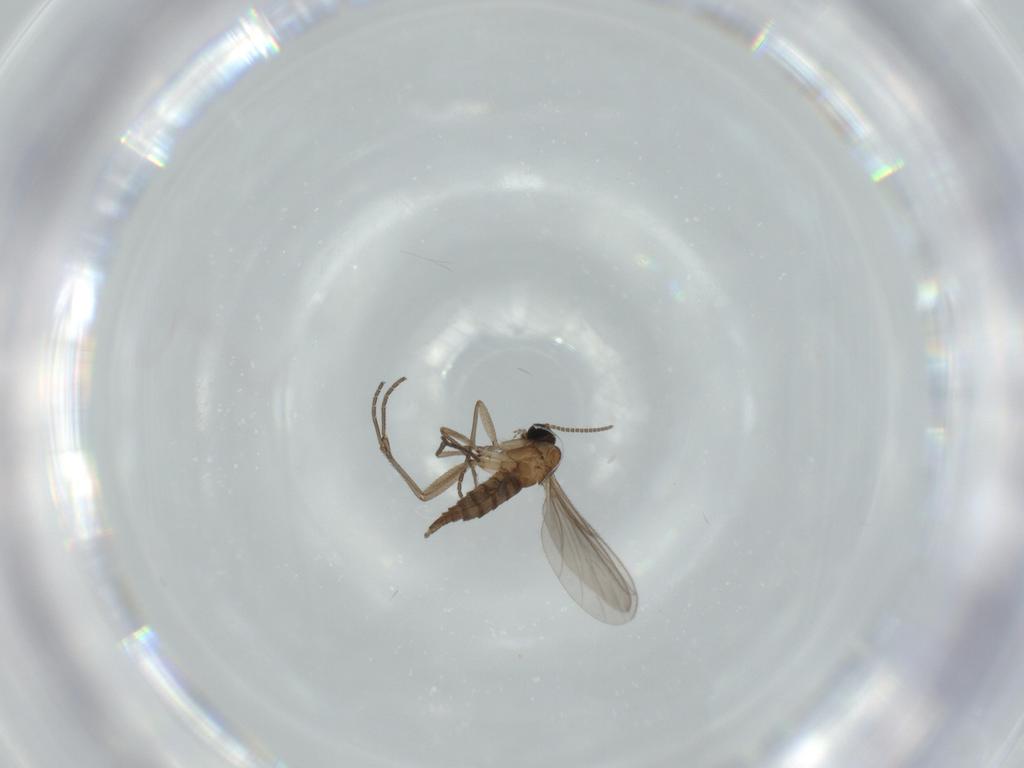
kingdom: Animalia
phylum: Arthropoda
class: Insecta
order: Diptera
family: Sciaridae
